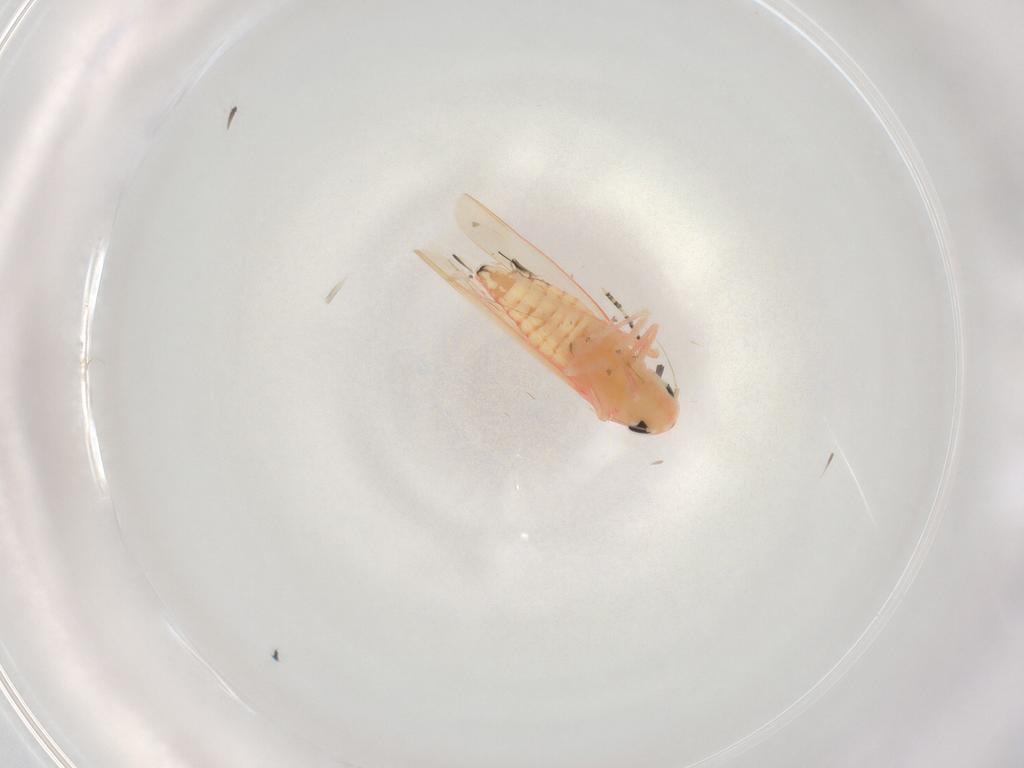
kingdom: Animalia
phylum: Arthropoda
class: Insecta
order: Hemiptera
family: Cicadellidae
